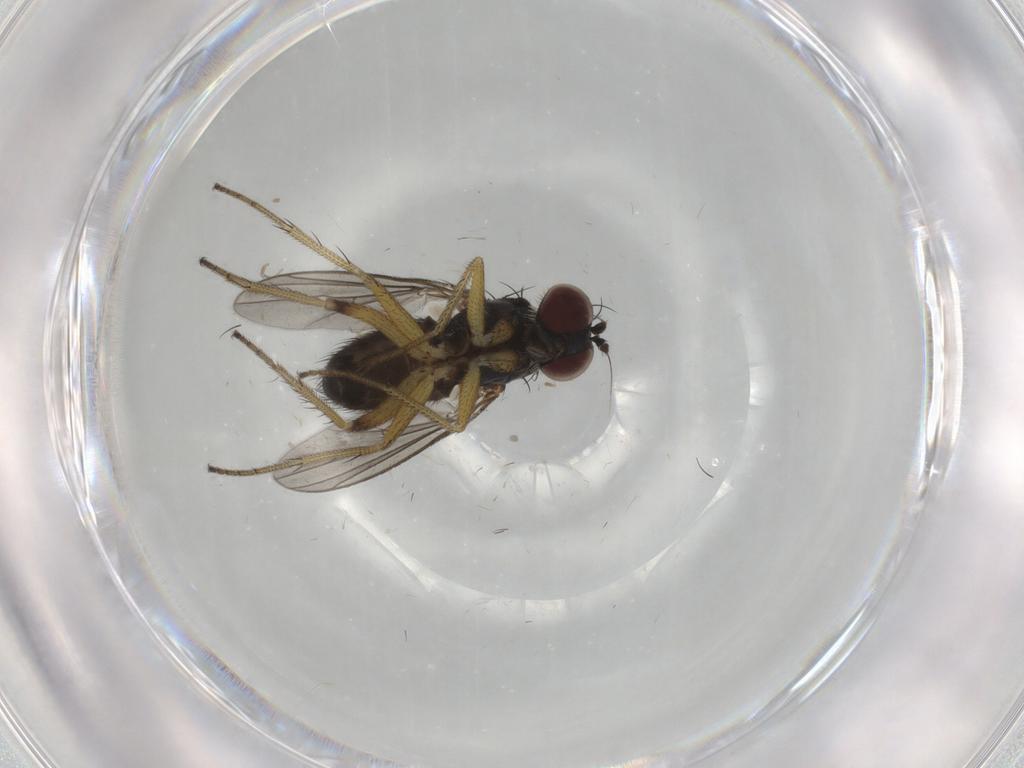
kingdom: Animalia
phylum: Arthropoda
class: Insecta
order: Diptera
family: Dolichopodidae
